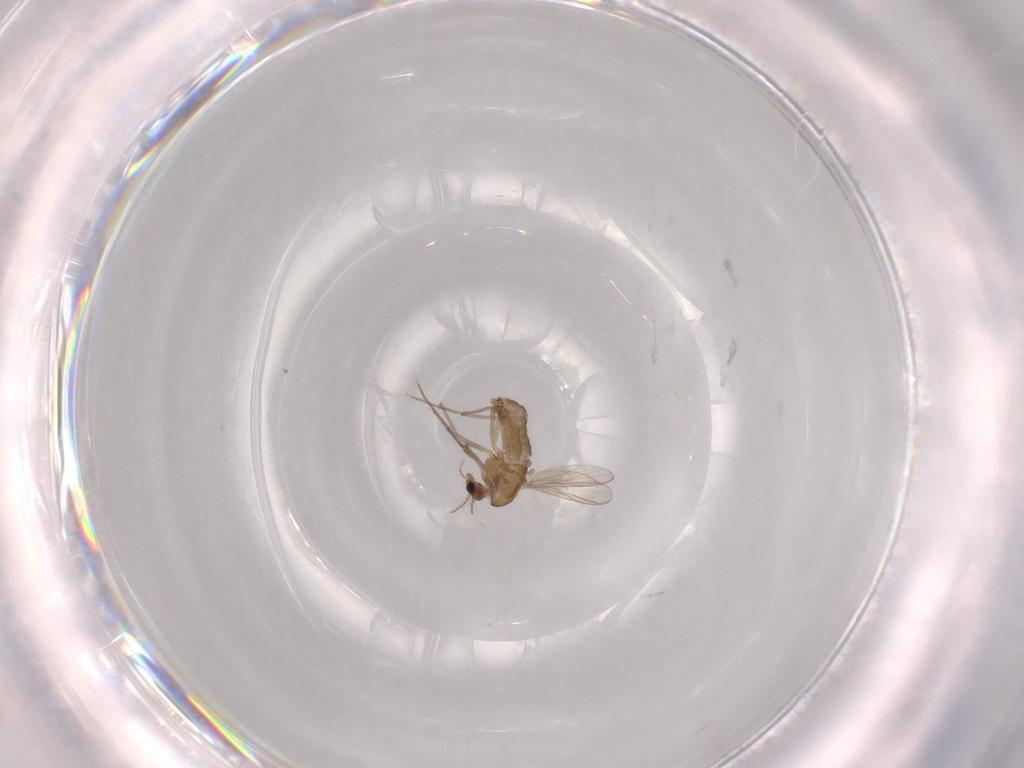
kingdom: Animalia
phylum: Arthropoda
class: Insecta
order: Diptera
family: Chironomidae
